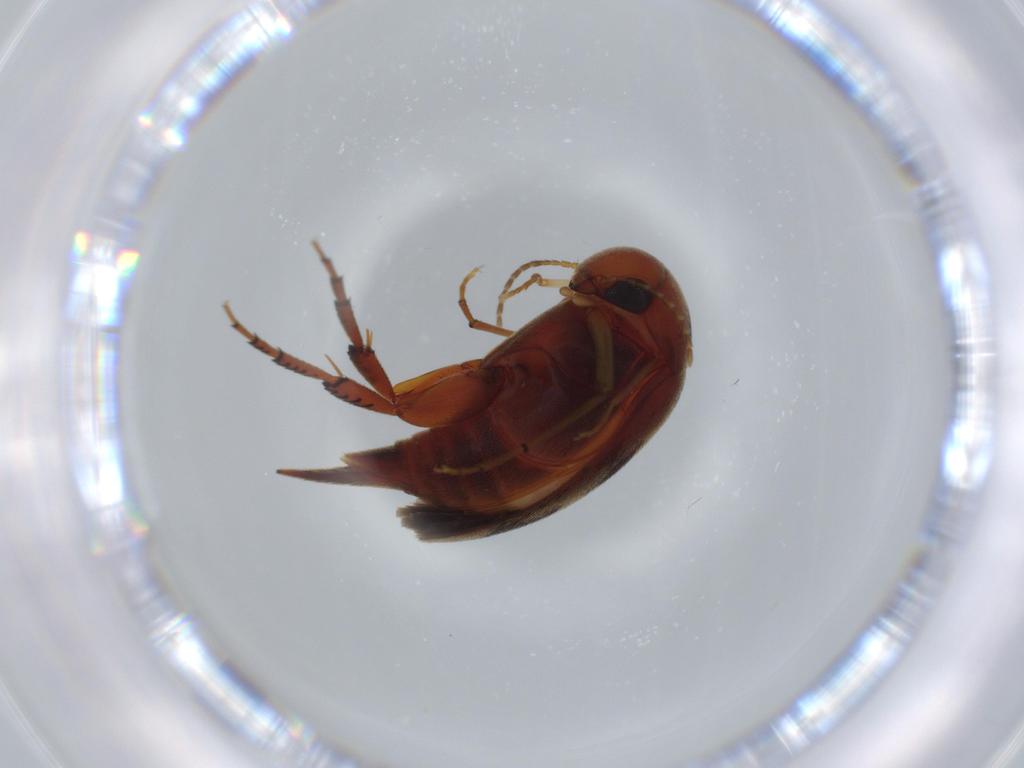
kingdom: Animalia
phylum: Arthropoda
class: Insecta
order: Coleoptera
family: Mordellidae
